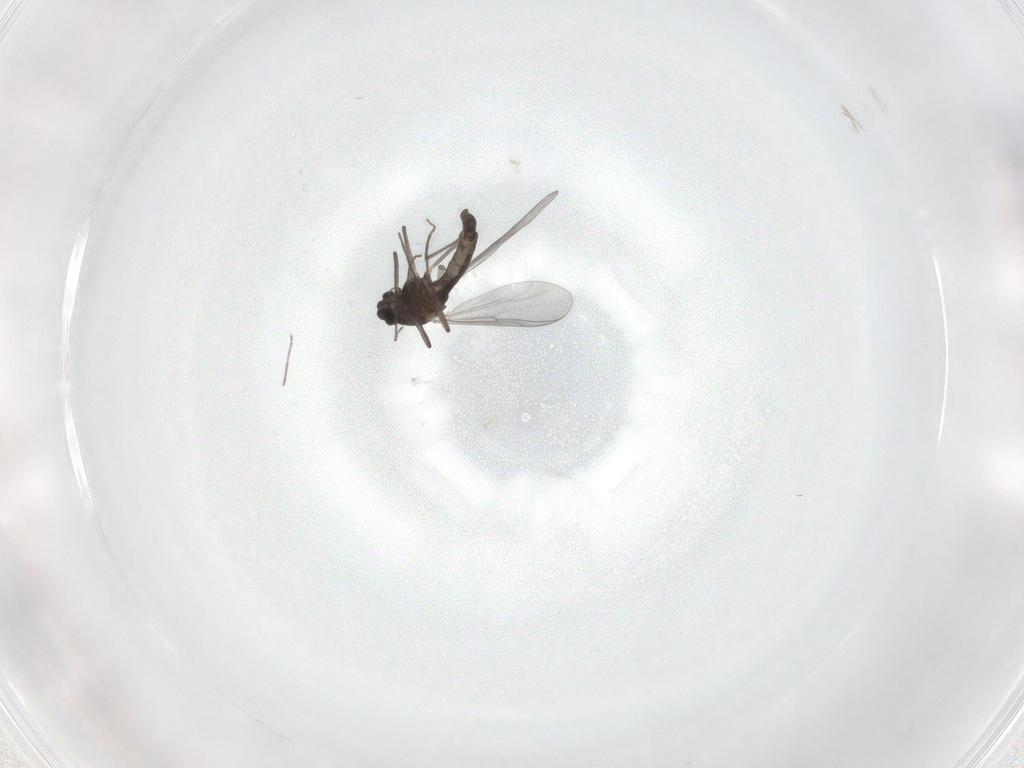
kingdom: Animalia
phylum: Arthropoda
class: Insecta
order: Diptera
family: Chironomidae
